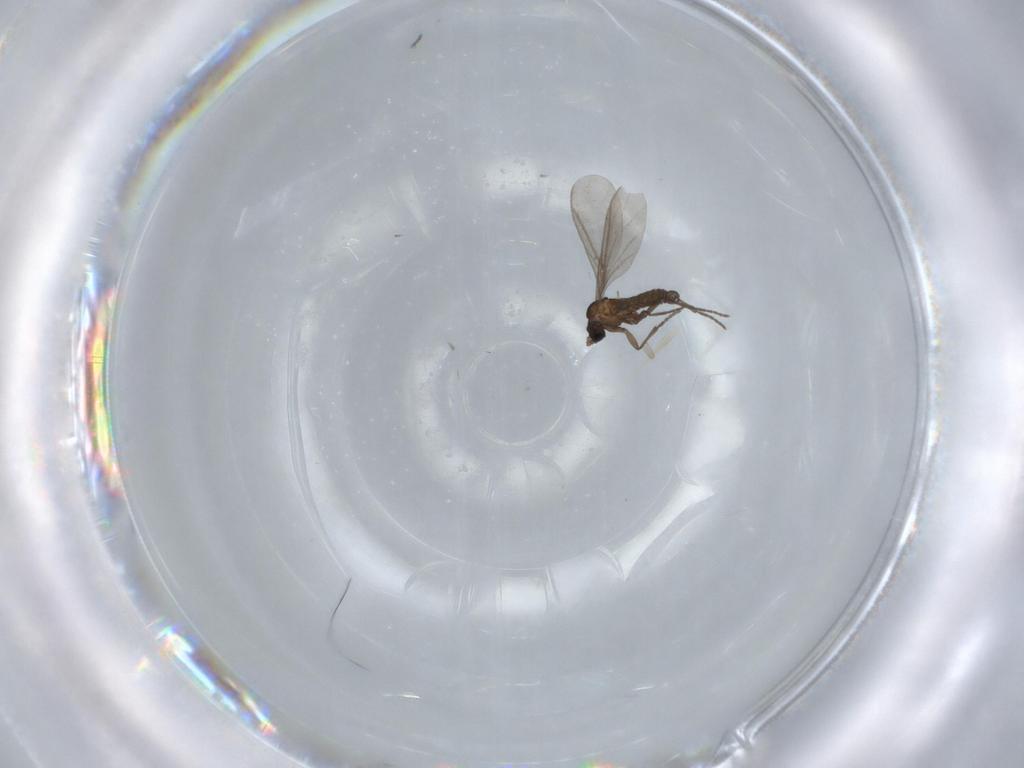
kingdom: Animalia
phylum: Arthropoda
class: Insecta
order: Diptera
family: Sciaridae
